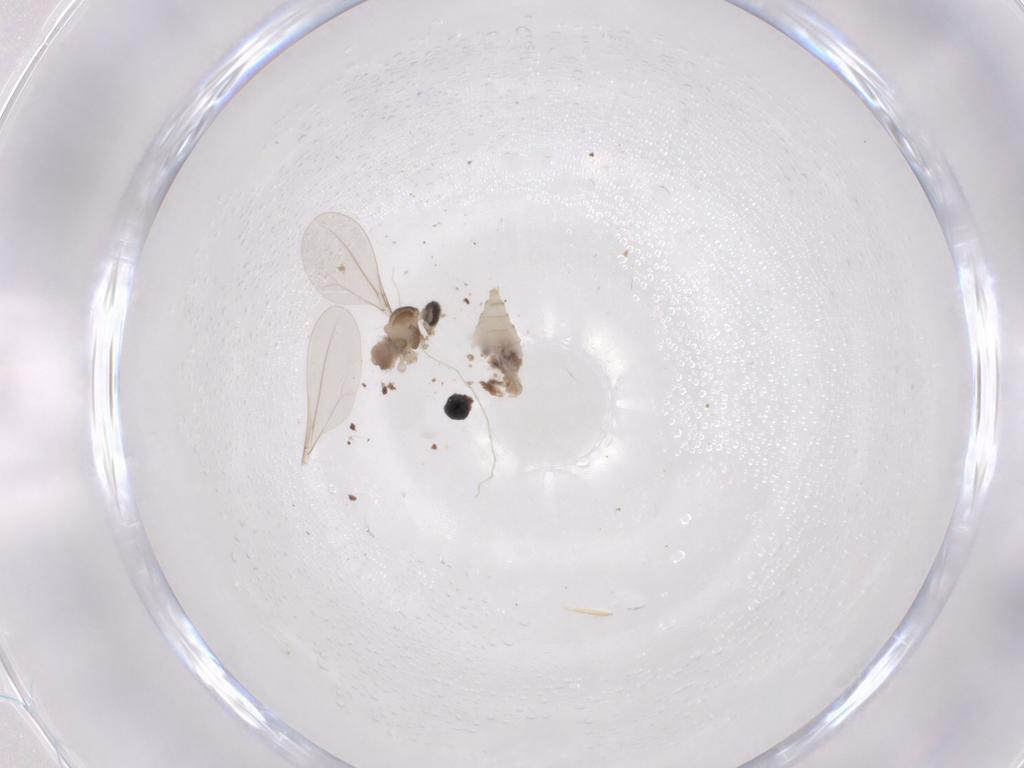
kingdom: Animalia
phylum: Arthropoda
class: Insecta
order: Diptera
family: Psychodidae
